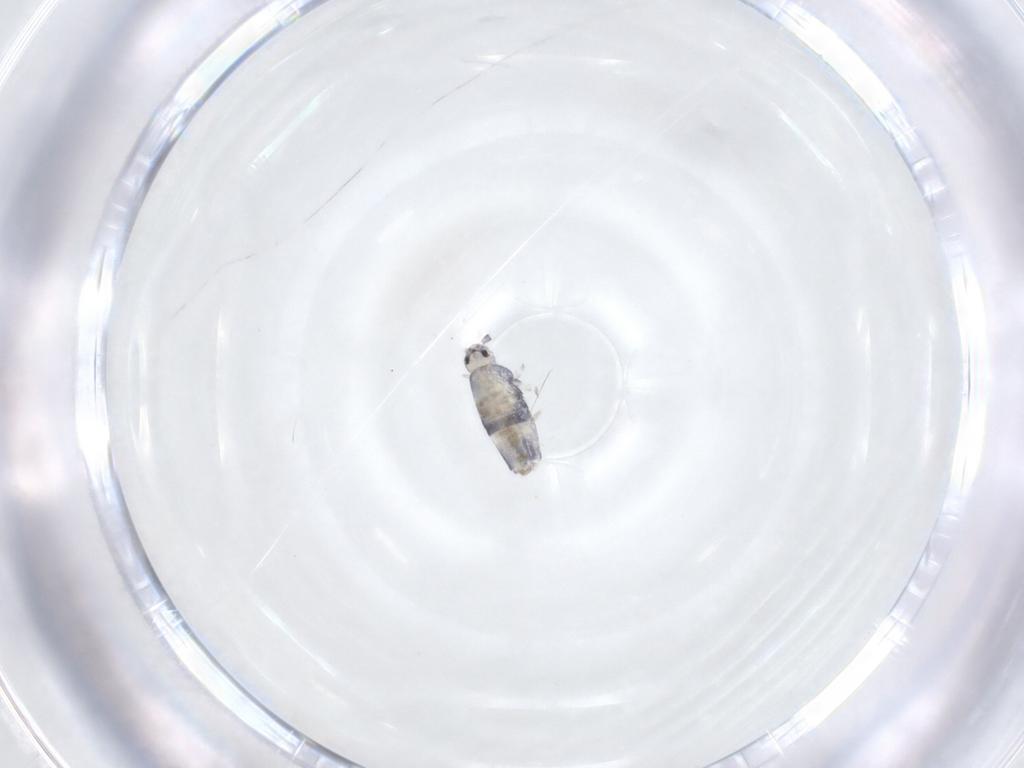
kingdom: Animalia
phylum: Arthropoda
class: Collembola
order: Entomobryomorpha
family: Entomobryidae
